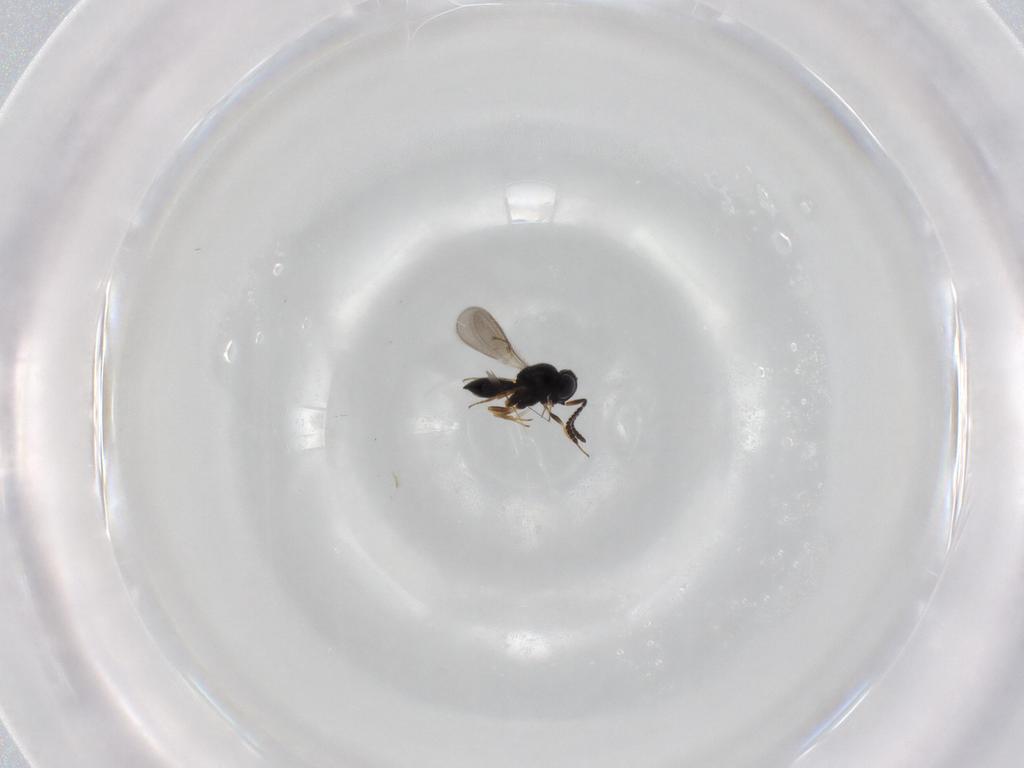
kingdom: Animalia
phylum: Arthropoda
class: Insecta
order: Hymenoptera
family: Scelionidae
